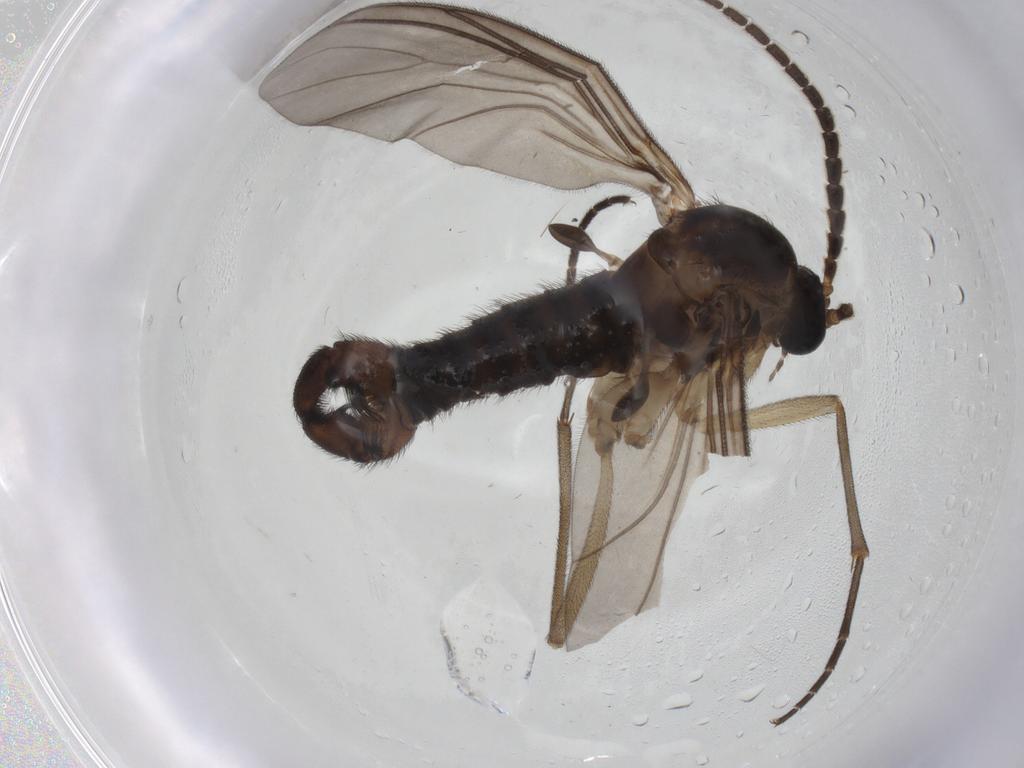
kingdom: Animalia
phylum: Arthropoda
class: Insecta
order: Diptera
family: Sciaridae
